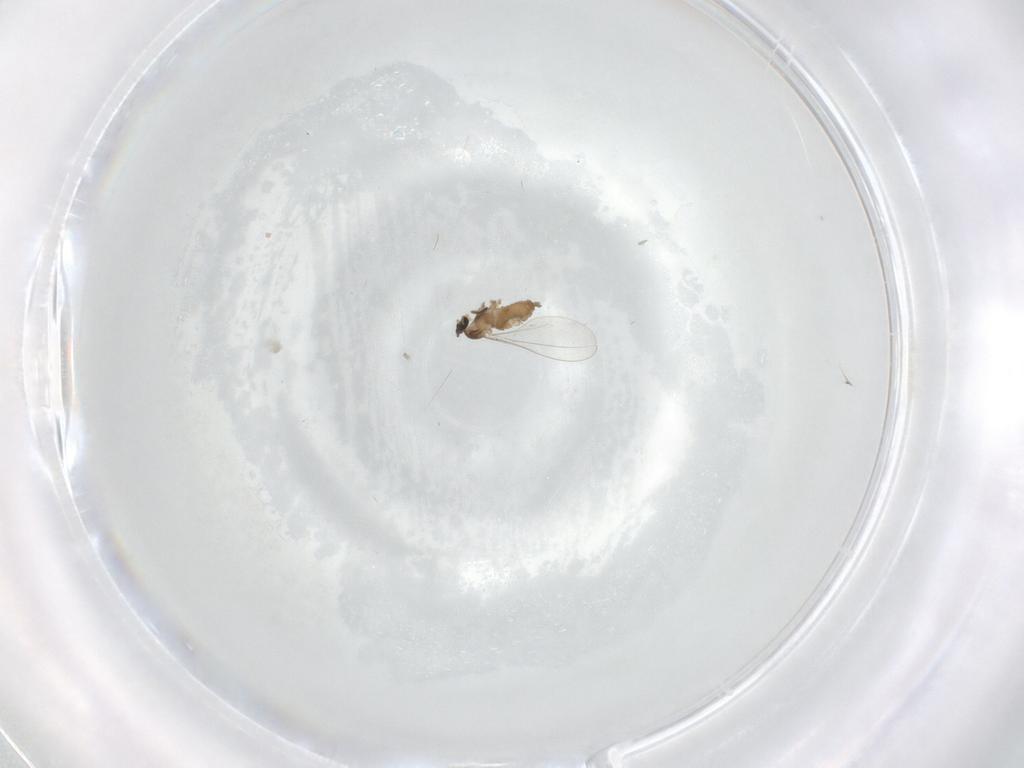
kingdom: Animalia
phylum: Arthropoda
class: Insecta
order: Diptera
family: Cecidomyiidae
